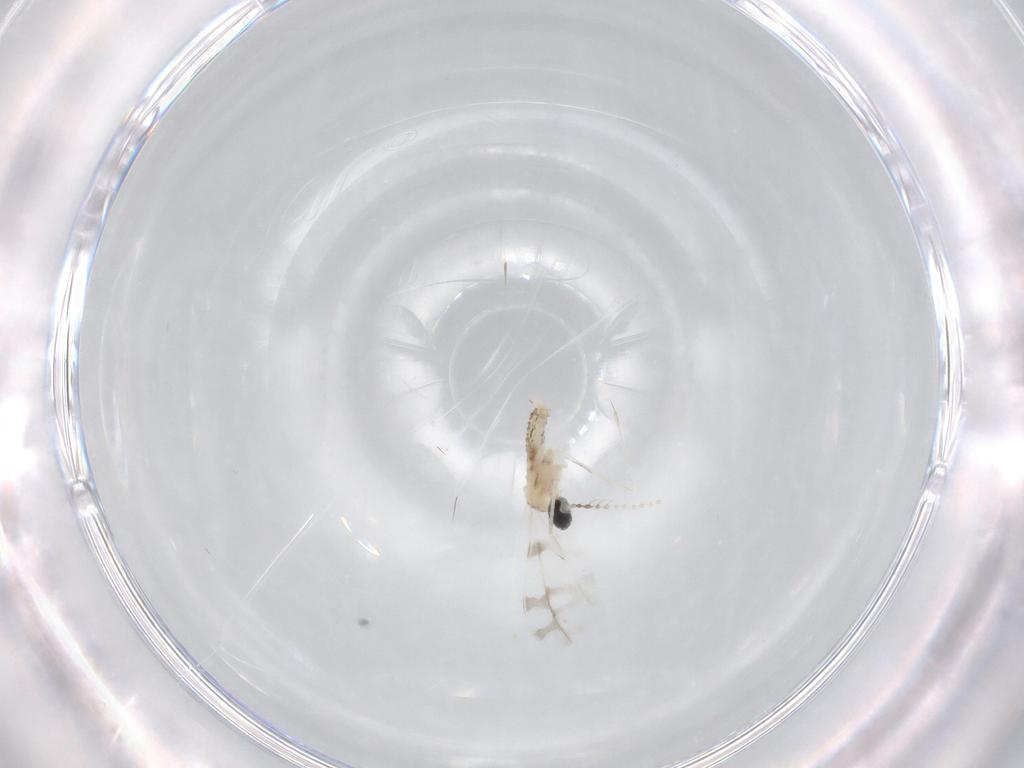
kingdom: Animalia
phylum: Arthropoda
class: Insecta
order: Diptera
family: Cecidomyiidae
